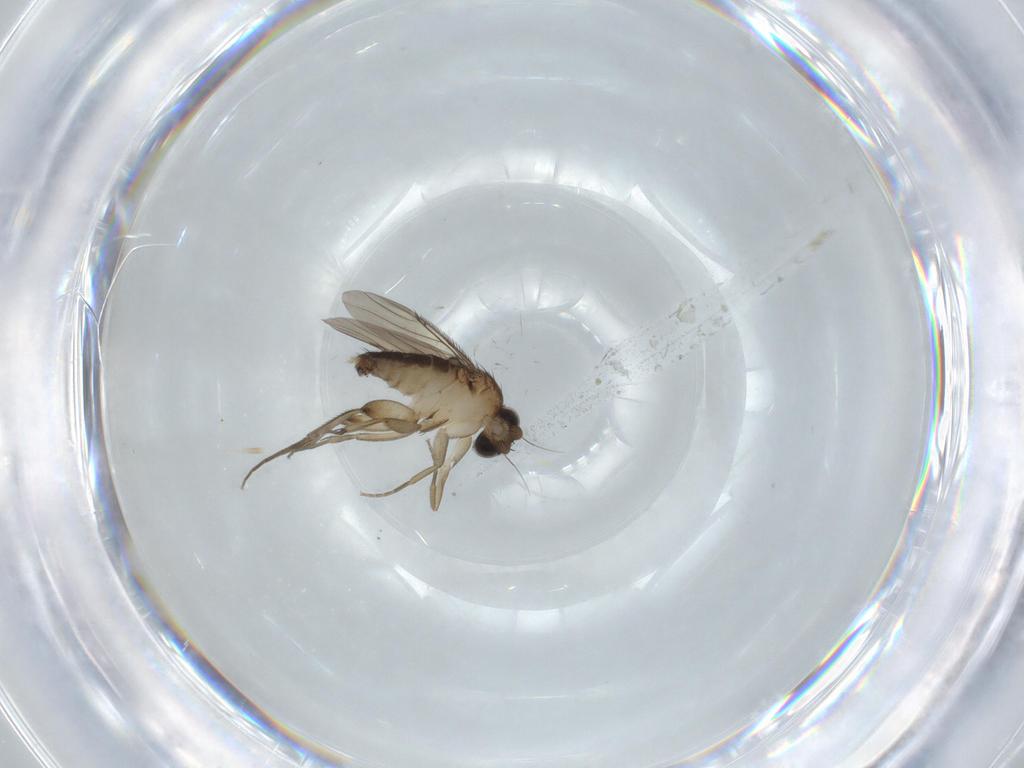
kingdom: Animalia
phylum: Arthropoda
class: Insecta
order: Diptera
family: Phoridae
